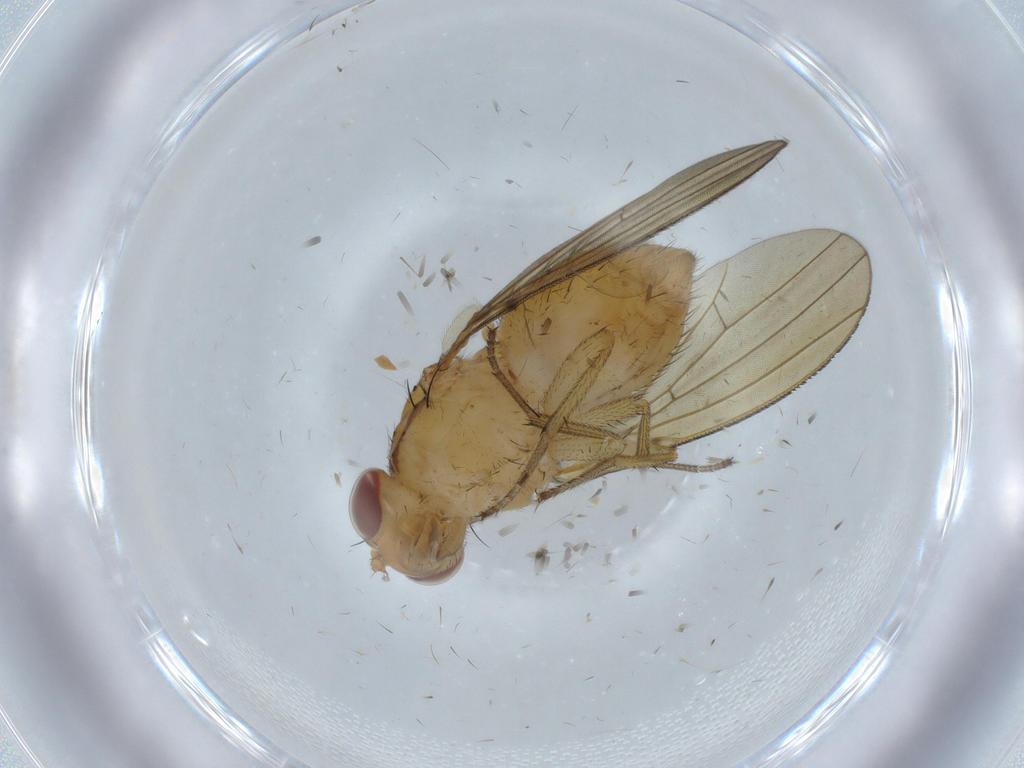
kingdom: Animalia
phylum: Arthropoda
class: Insecta
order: Diptera
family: Lauxaniidae
